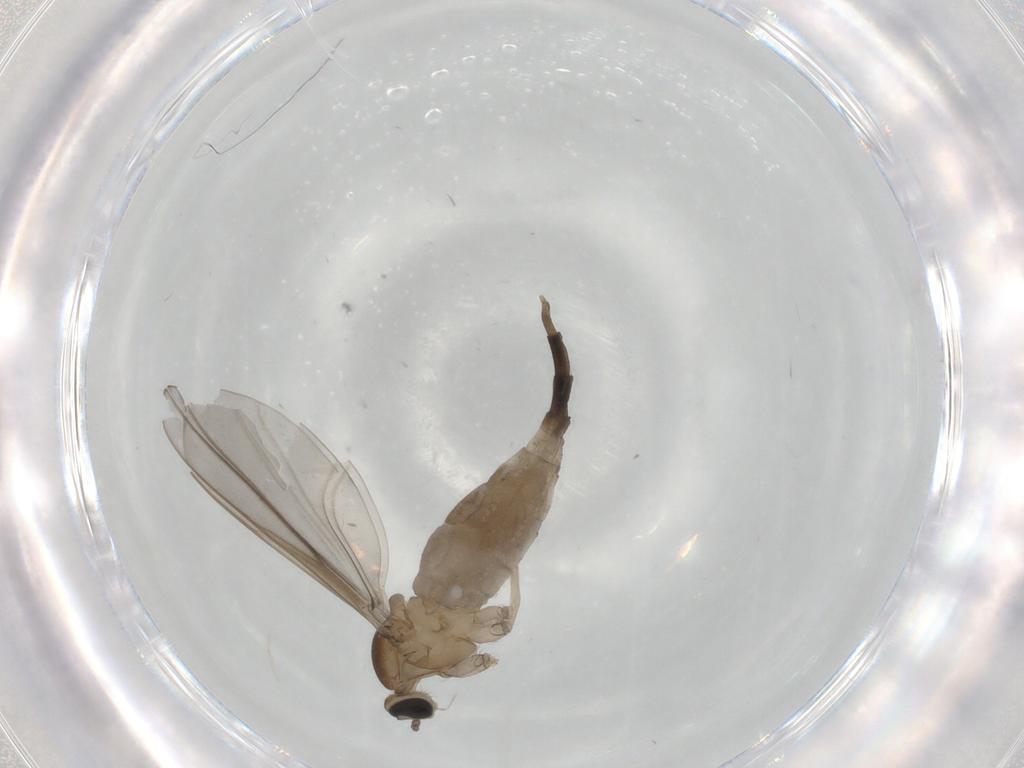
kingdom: Animalia
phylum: Arthropoda
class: Insecta
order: Diptera
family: Cecidomyiidae
